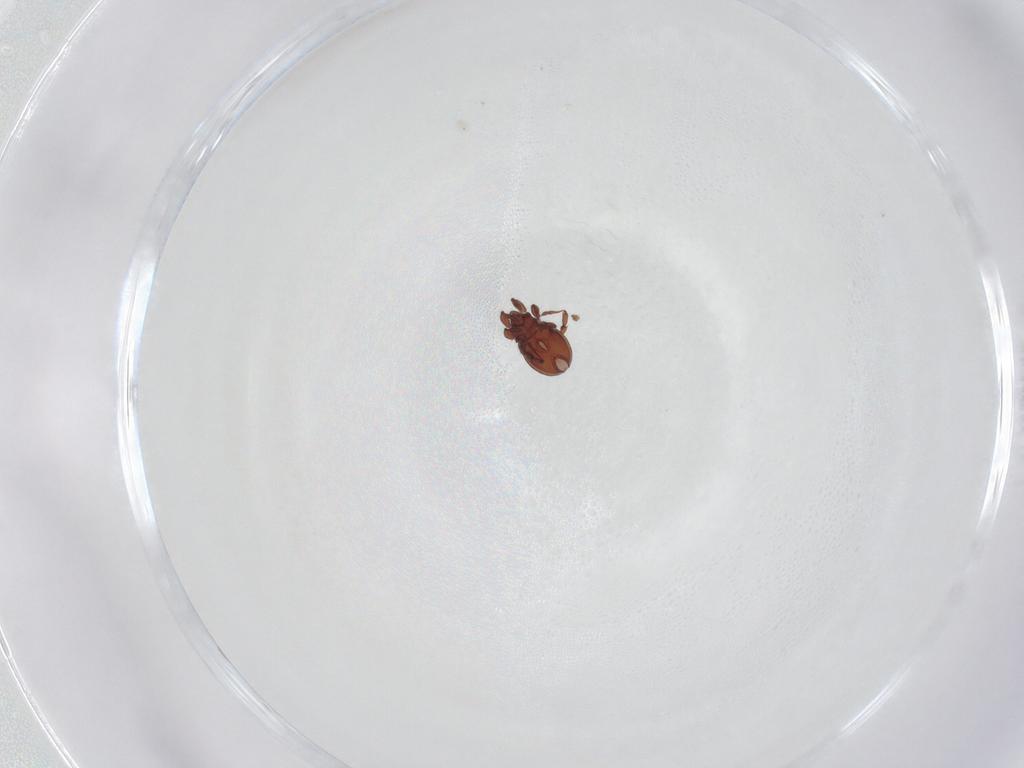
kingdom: Animalia
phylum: Arthropoda
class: Arachnida
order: Sarcoptiformes
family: Eremaeidae
